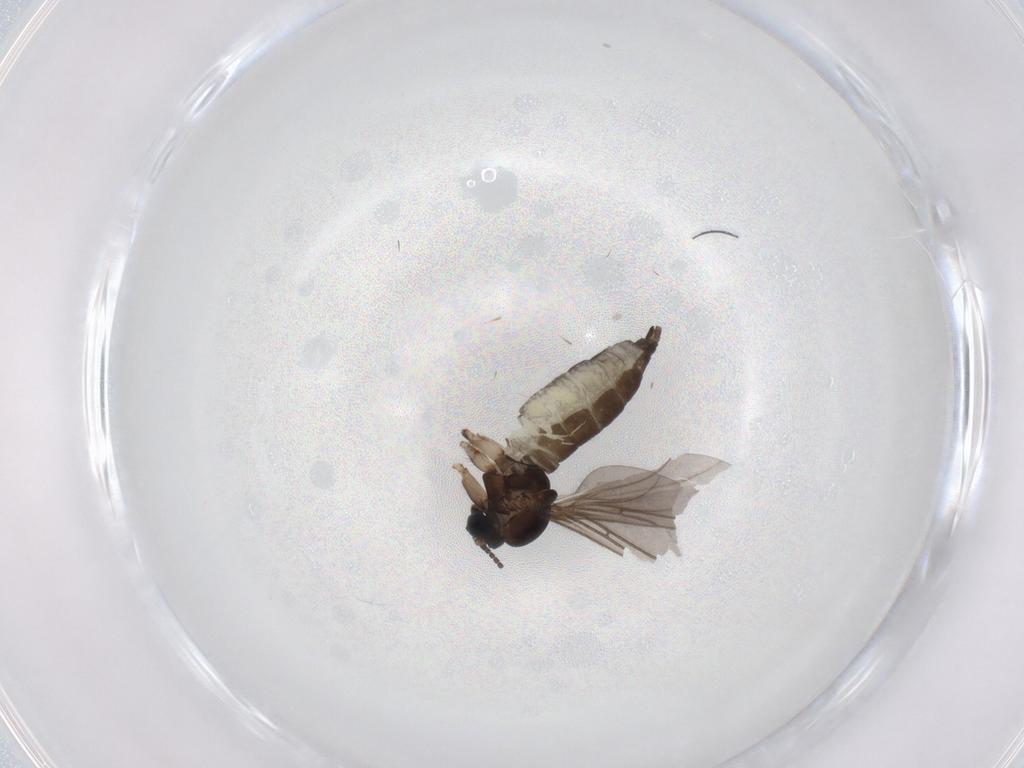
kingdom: Animalia
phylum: Arthropoda
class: Insecta
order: Diptera
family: Sciaridae
